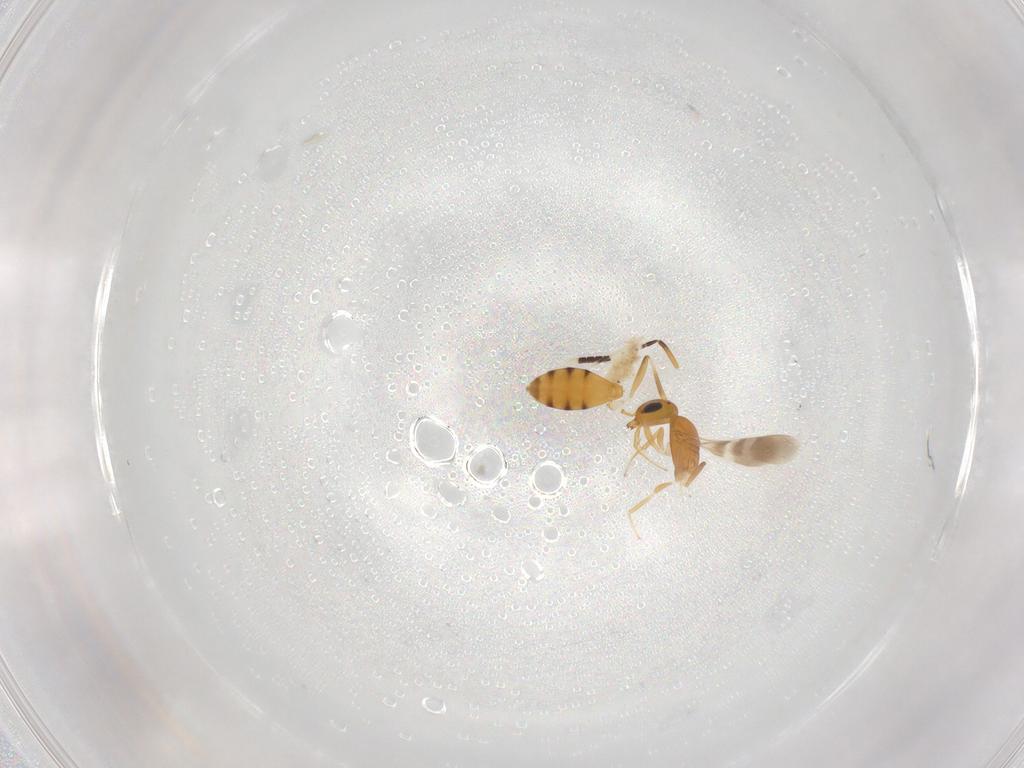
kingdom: Animalia
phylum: Arthropoda
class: Insecta
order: Hymenoptera
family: Scelionidae
